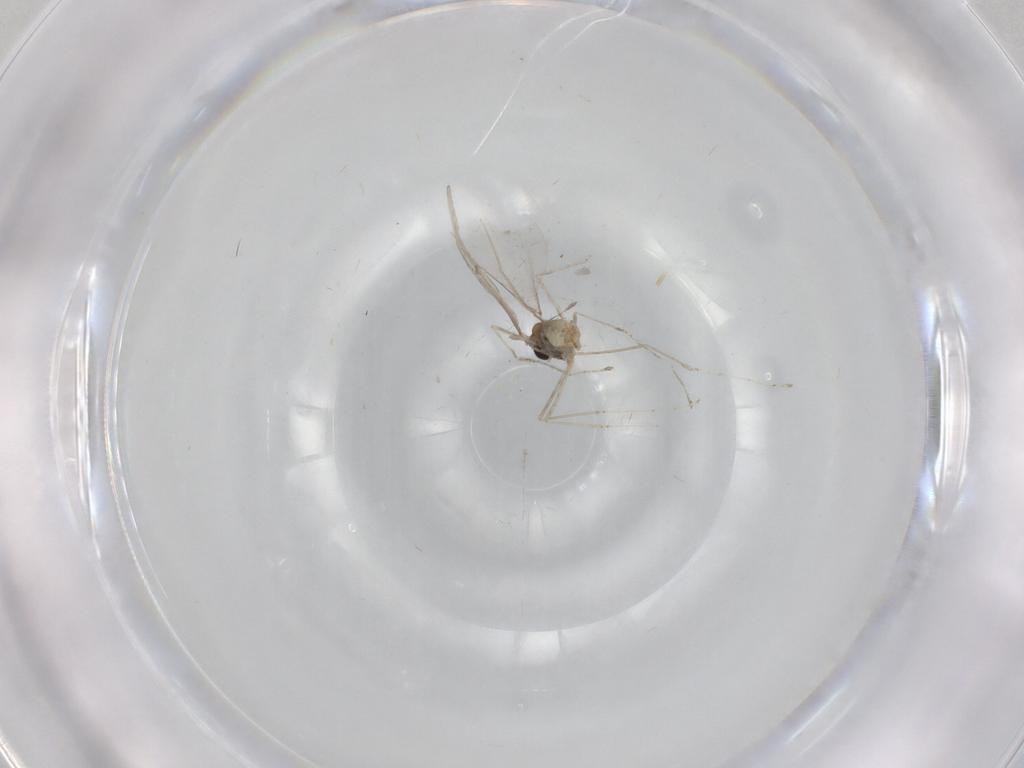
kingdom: Animalia
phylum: Arthropoda
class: Insecta
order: Diptera
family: Cecidomyiidae
